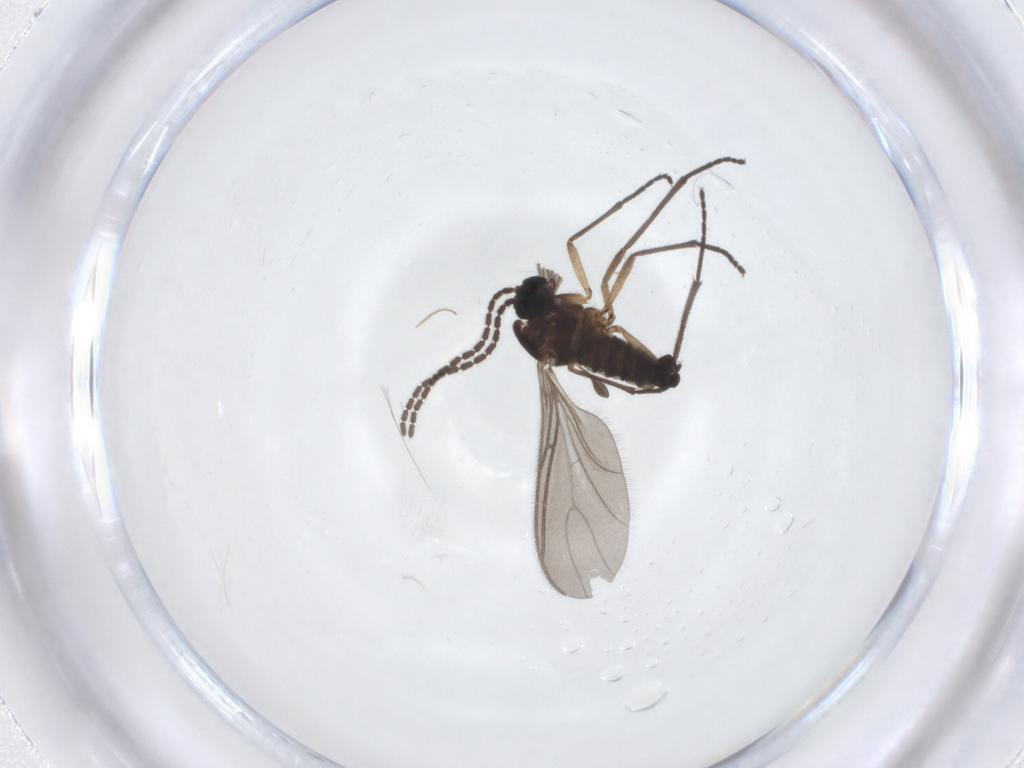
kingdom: Animalia
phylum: Arthropoda
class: Insecta
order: Diptera
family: Sciaridae
